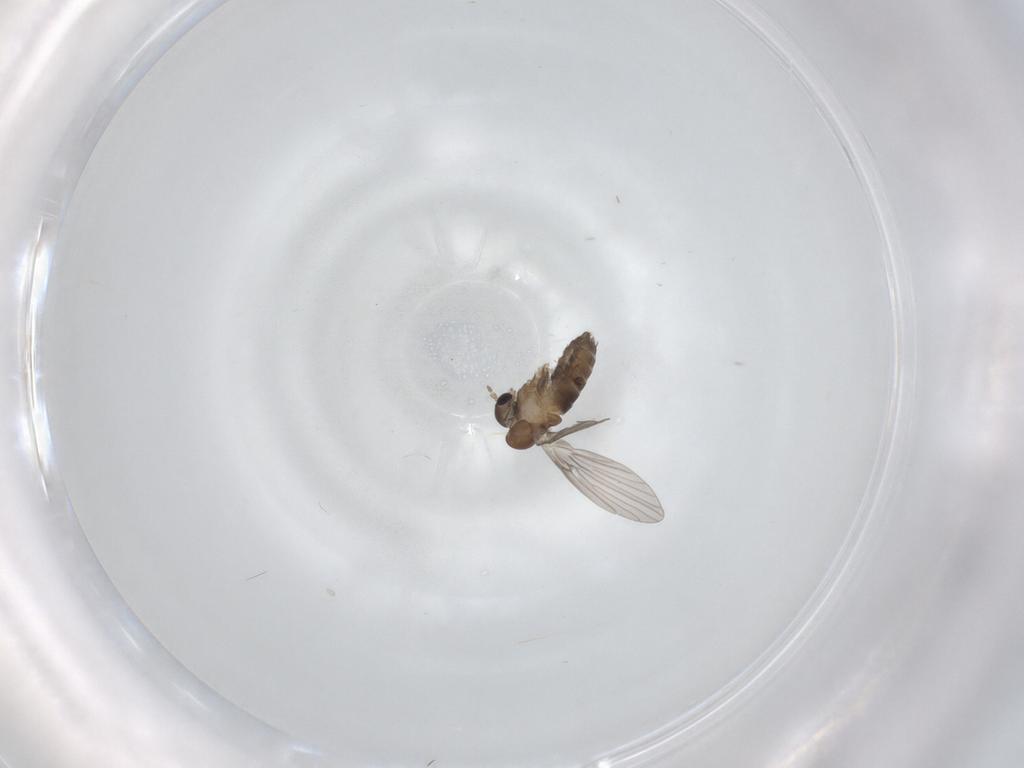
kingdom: Animalia
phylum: Arthropoda
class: Insecta
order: Diptera
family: Psychodidae
